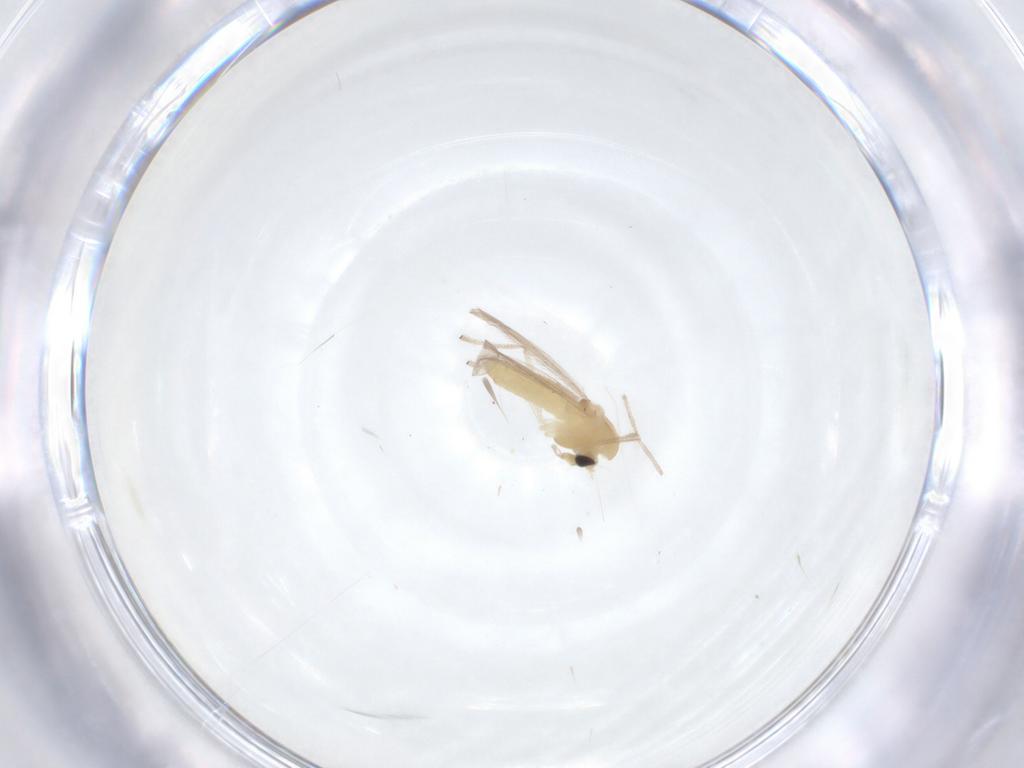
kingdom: Animalia
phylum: Arthropoda
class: Insecta
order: Diptera
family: Chironomidae
